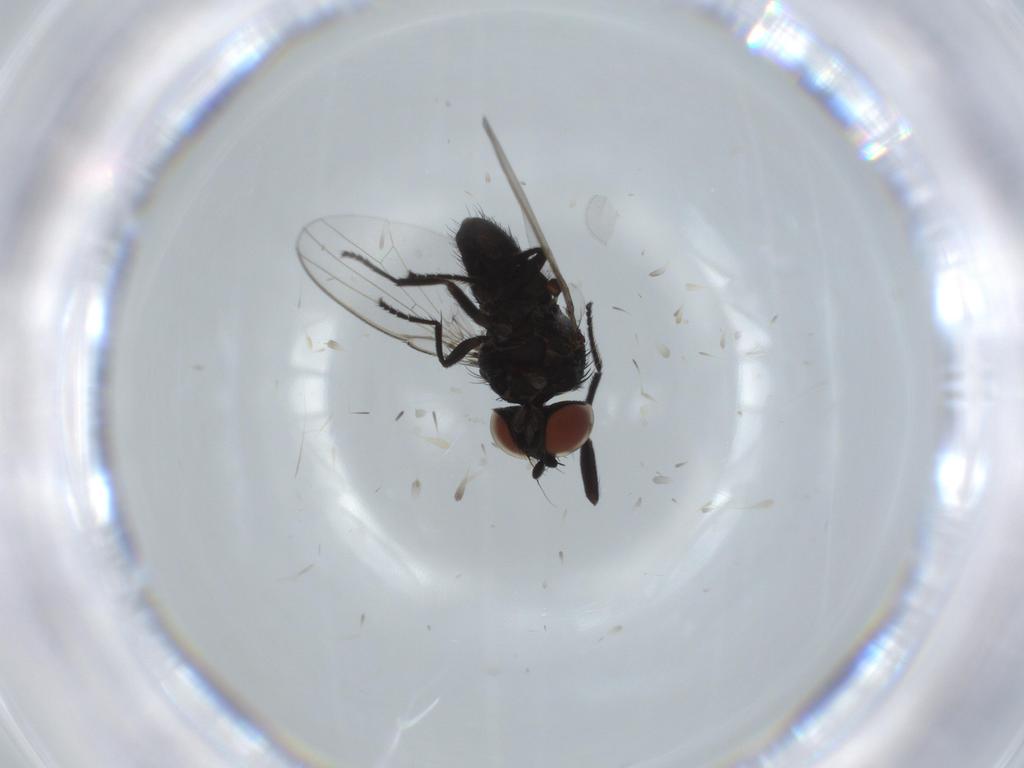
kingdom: Animalia
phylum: Arthropoda
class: Insecta
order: Diptera
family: Milichiidae
